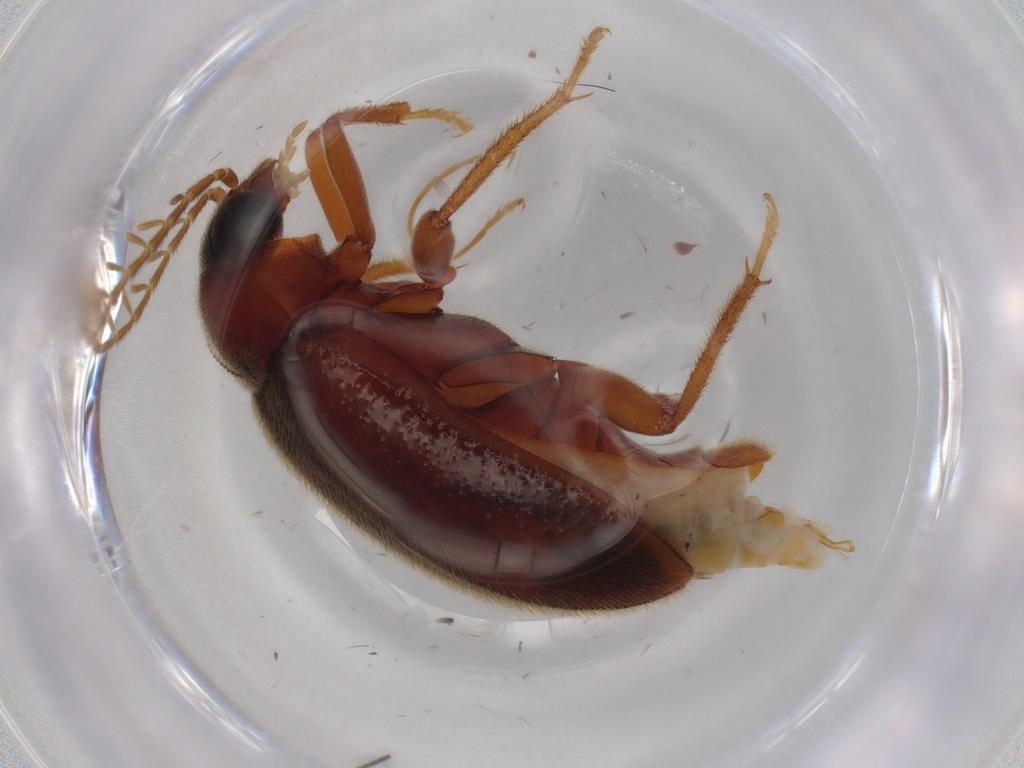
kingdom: Animalia
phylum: Arthropoda
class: Insecta
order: Coleoptera
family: Ptilodactylidae
